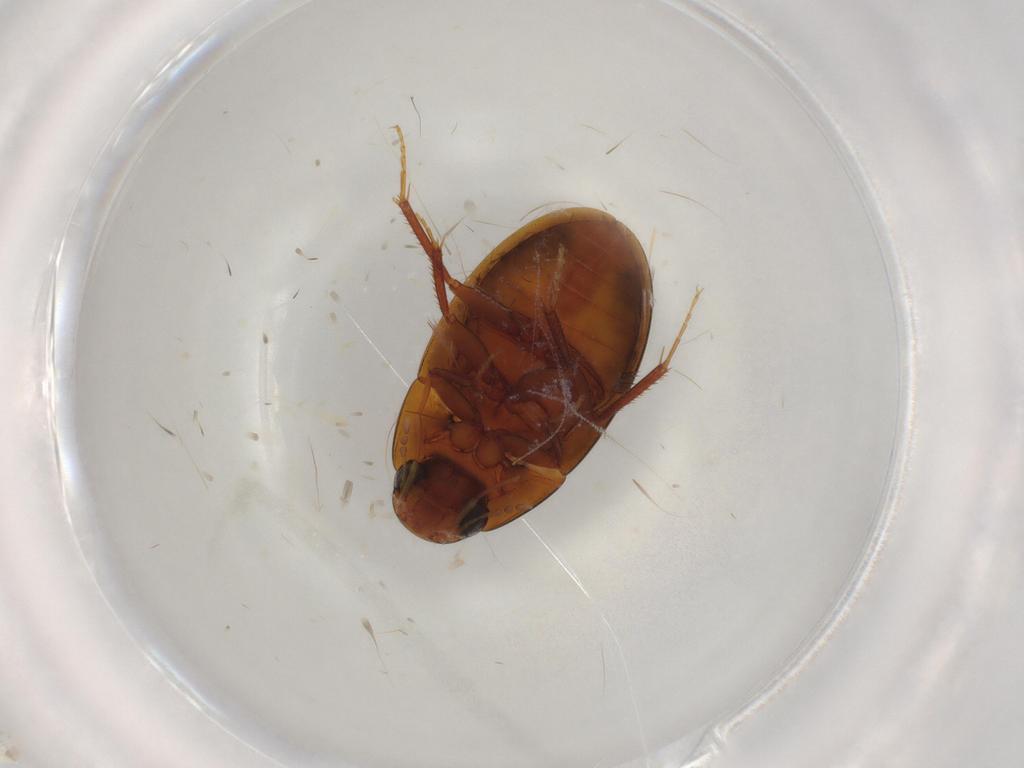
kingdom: Animalia
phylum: Arthropoda
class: Insecta
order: Coleoptera
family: Hydrophilidae
